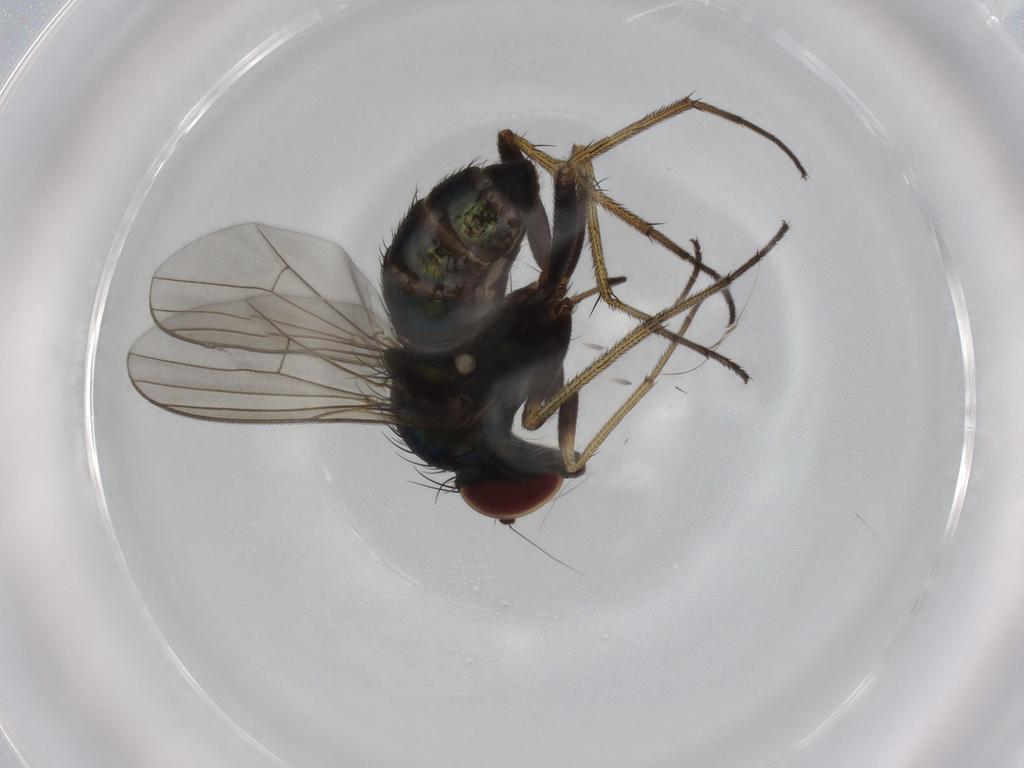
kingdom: Animalia
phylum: Arthropoda
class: Insecta
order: Diptera
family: Dolichopodidae
